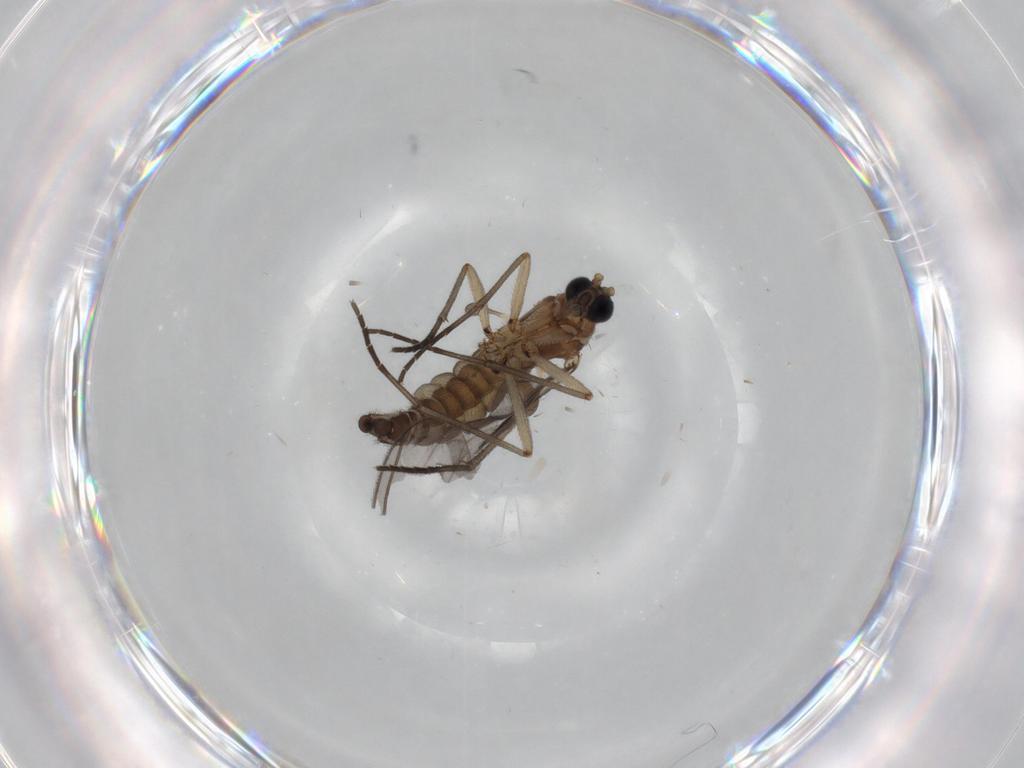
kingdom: Animalia
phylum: Arthropoda
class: Insecta
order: Diptera
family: Sciaridae
